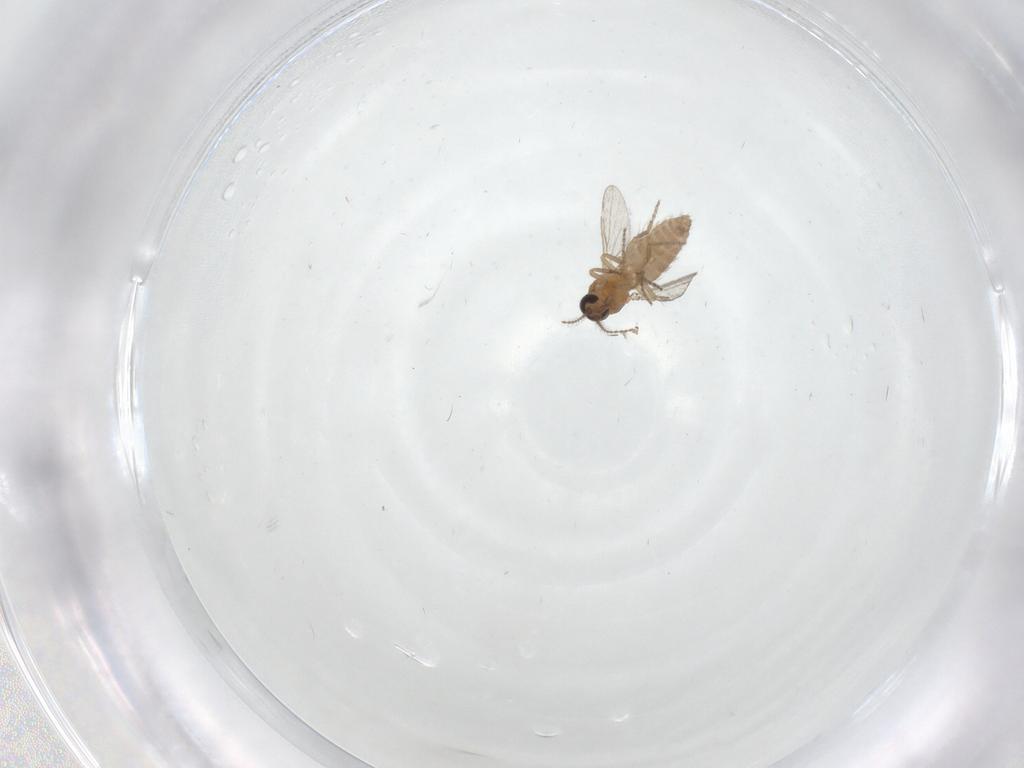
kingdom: Animalia
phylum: Arthropoda
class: Insecta
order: Diptera
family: Ceratopogonidae
